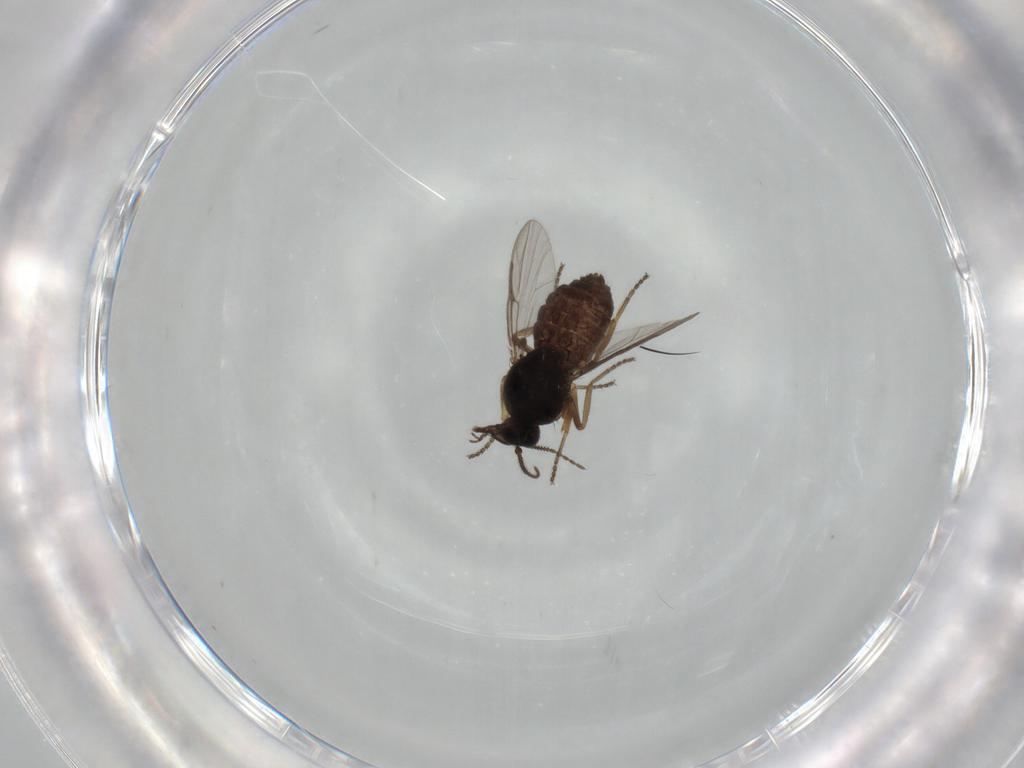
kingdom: Animalia
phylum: Arthropoda
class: Insecta
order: Diptera
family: Ceratopogonidae
